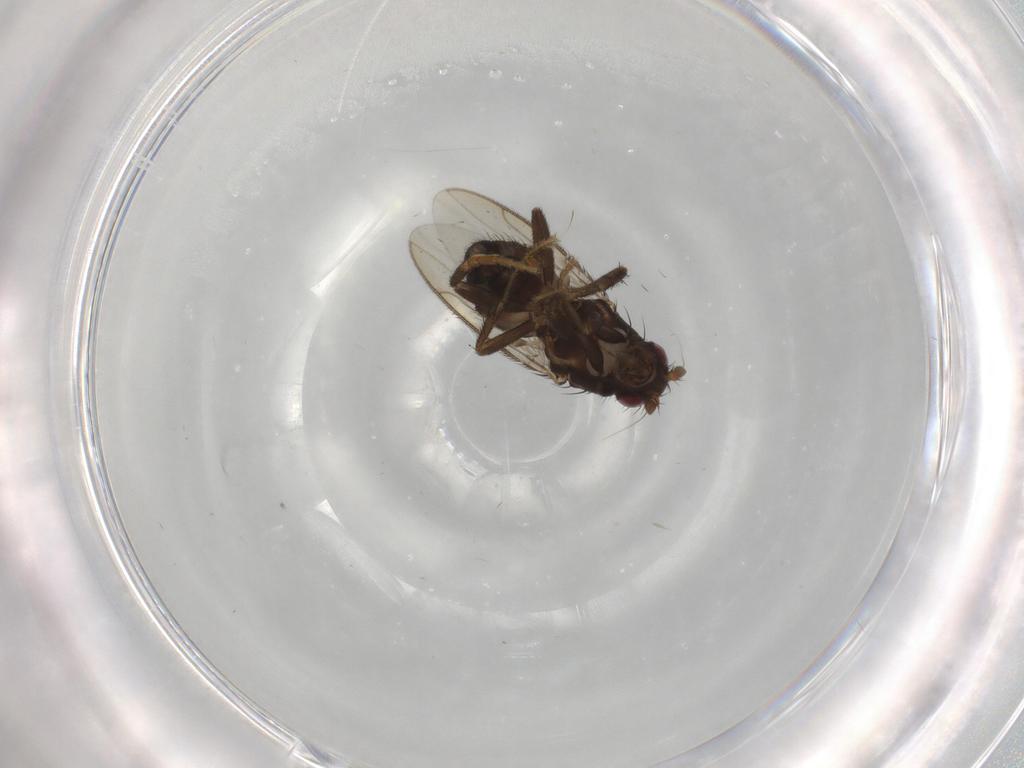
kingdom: Animalia
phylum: Arthropoda
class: Insecta
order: Diptera
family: Sphaeroceridae
